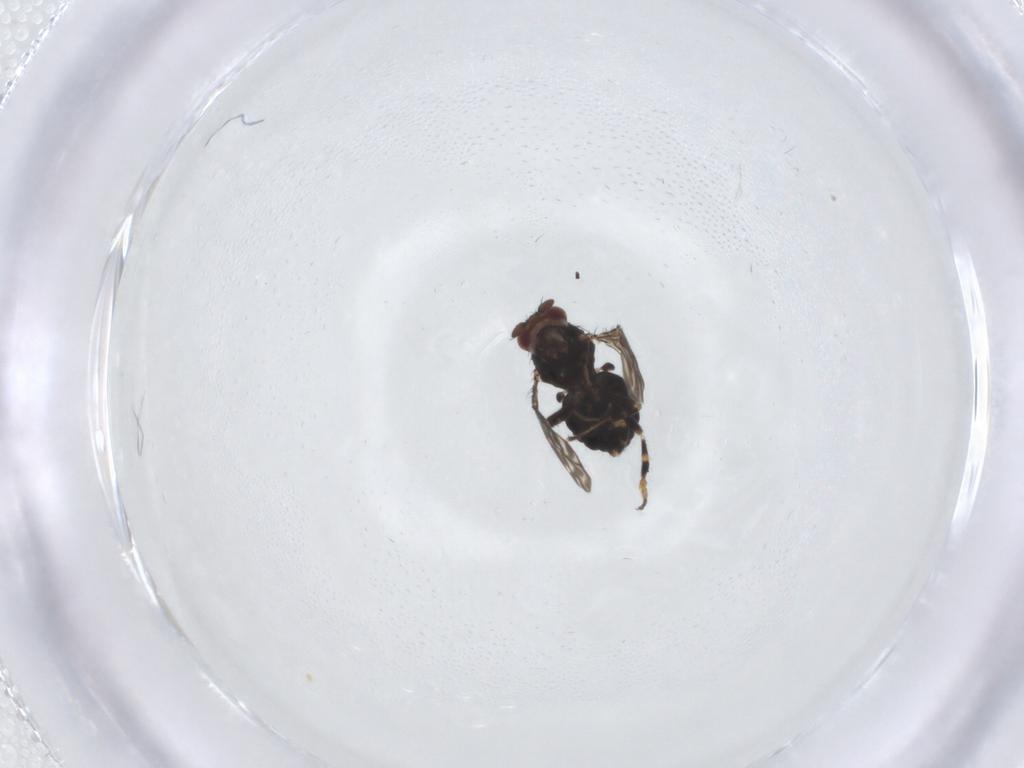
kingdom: Animalia
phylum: Arthropoda
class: Insecta
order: Diptera
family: Sphaeroceridae
